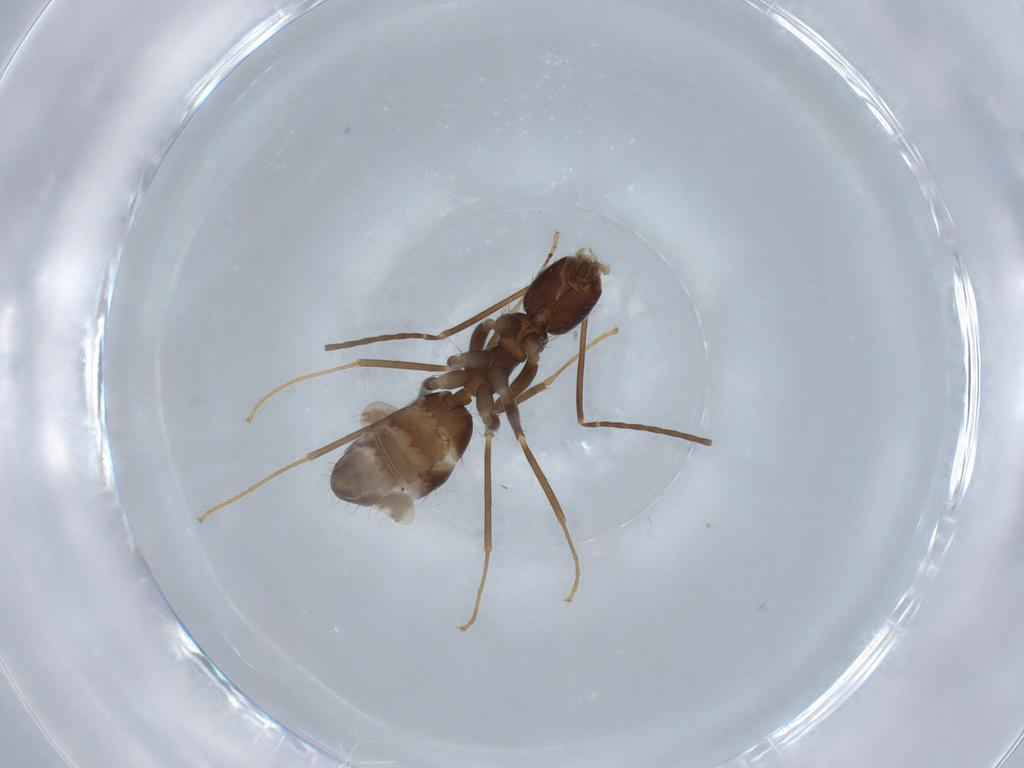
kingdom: Animalia
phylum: Arthropoda
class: Insecta
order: Hymenoptera
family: Formicidae
